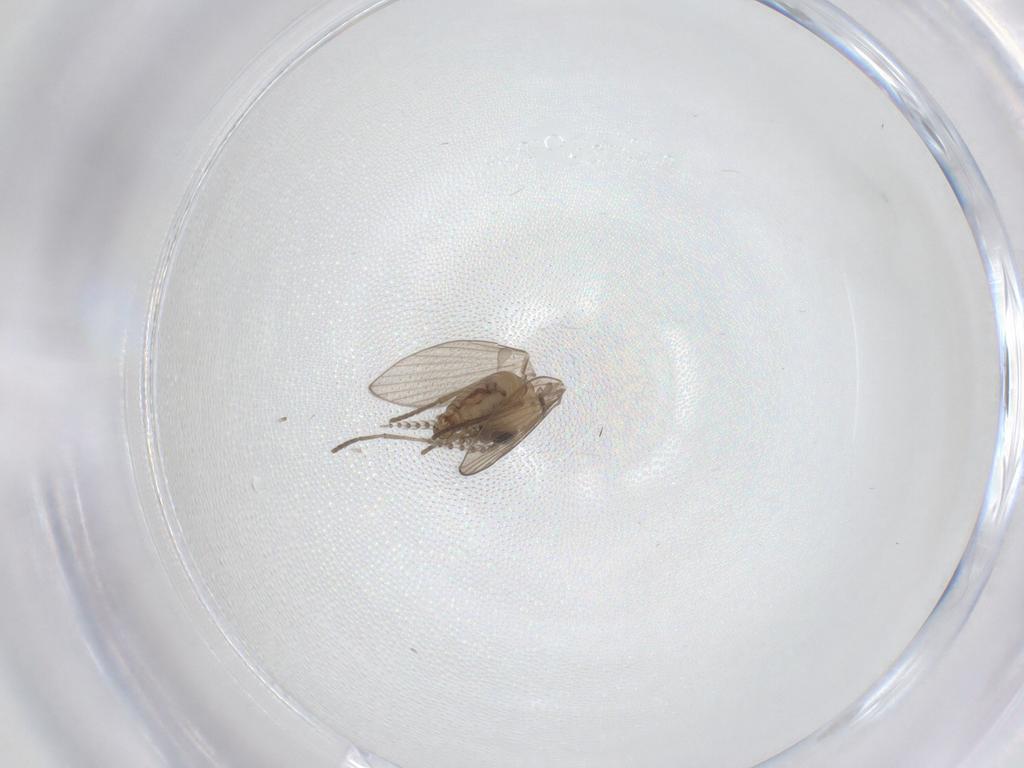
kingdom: Animalia
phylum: Arthropoda
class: Insecta
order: Diptera
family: Psychodidae
